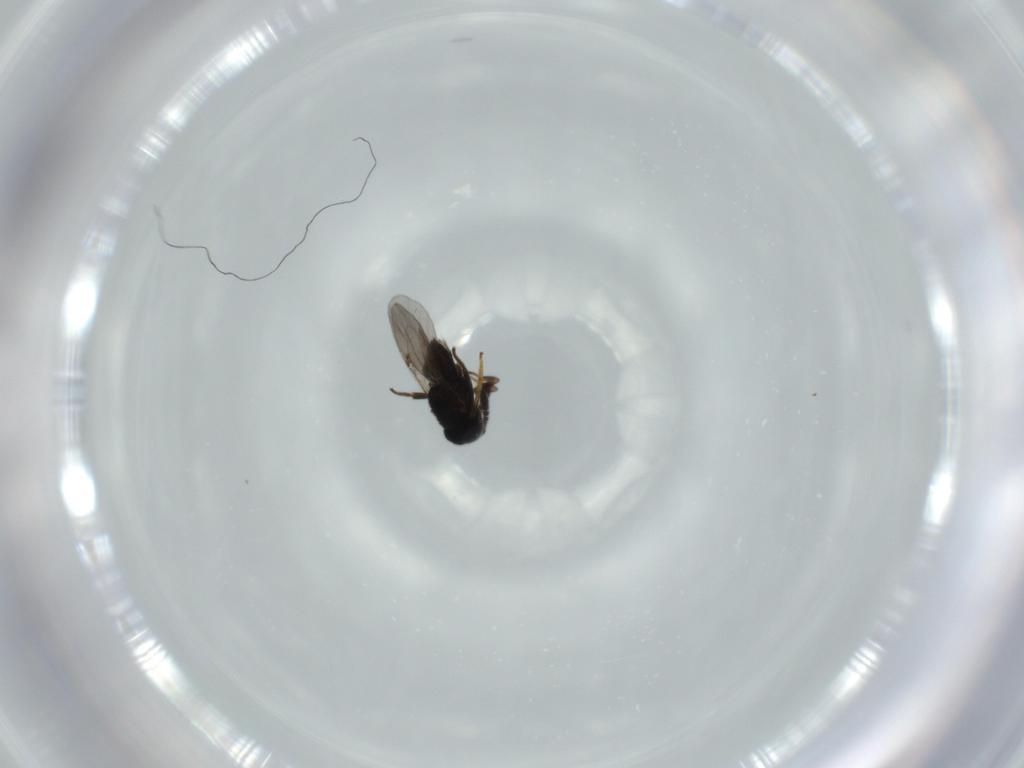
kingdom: Animalia
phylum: Arthropoda
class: Insecta
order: Hymenoptera
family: Encyrtidae
